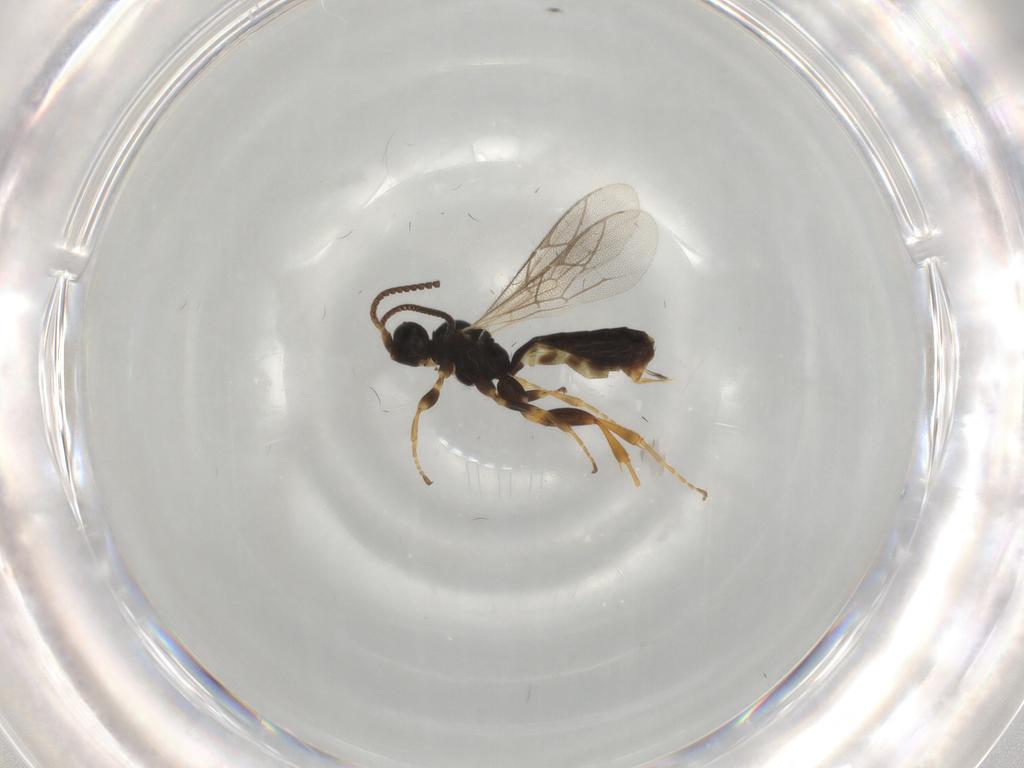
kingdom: Animalia
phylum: Arthropoda
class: Insecta
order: Hymenoptera
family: Ichneumonidae
